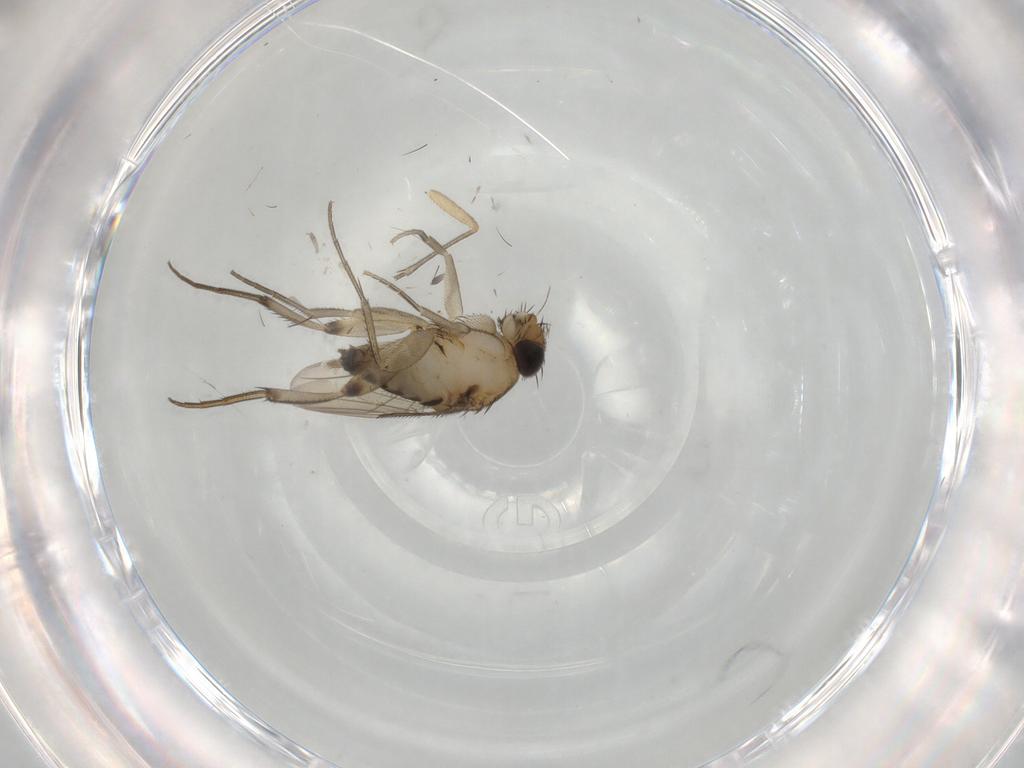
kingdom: Animalia
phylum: Arthropoda
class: Insecta
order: Diptera
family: Phoridae
